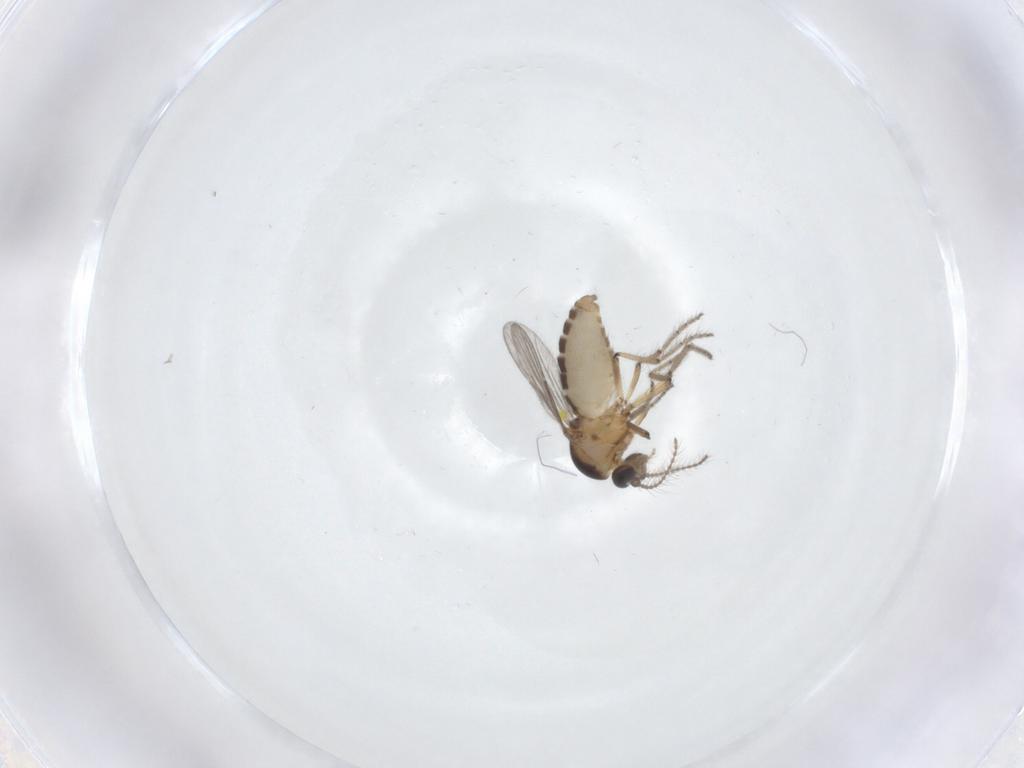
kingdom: Animalia
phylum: Arthropoda
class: Insecta
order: Diptera
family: Ceratopogonidae
